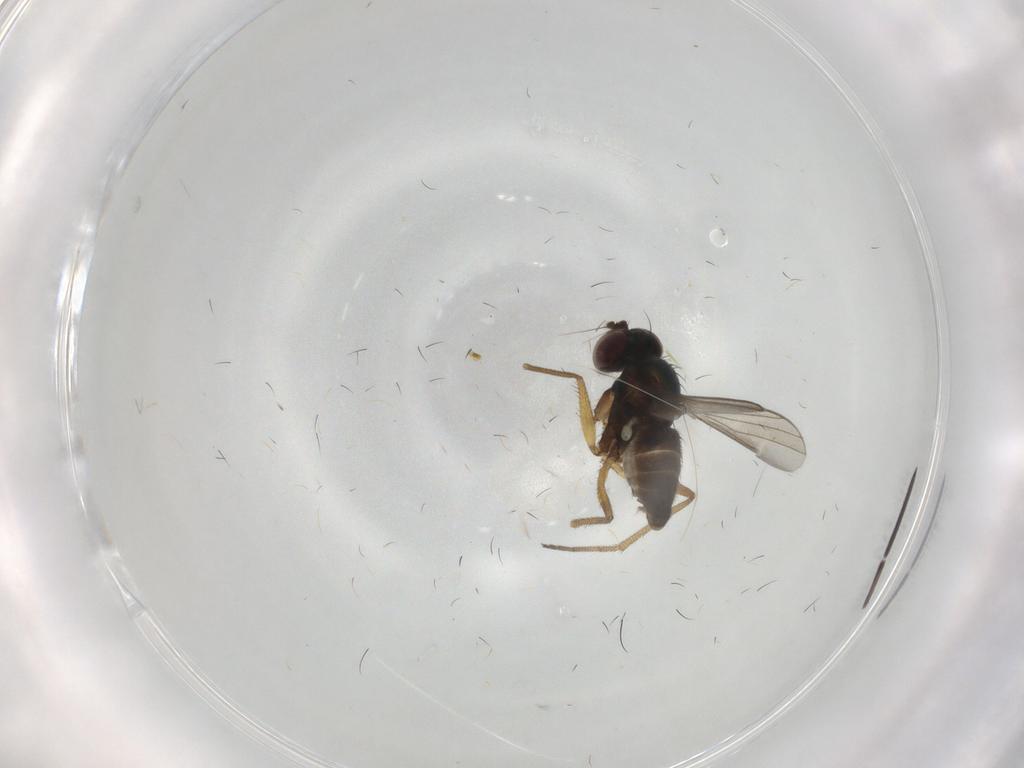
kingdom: Animalia
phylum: Arthropoda
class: Insecta
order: Diptera
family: Dolichopodidae
